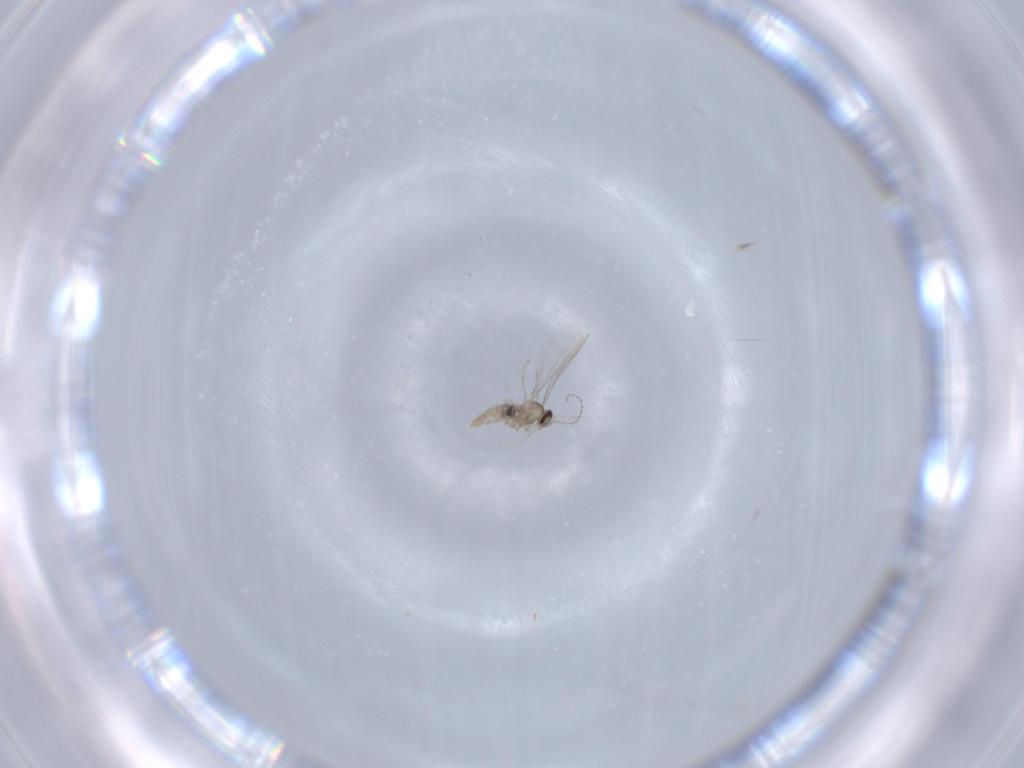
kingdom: Animalia
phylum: Arthropoda
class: Insecta
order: Diptera
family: Cecidomyiidae
